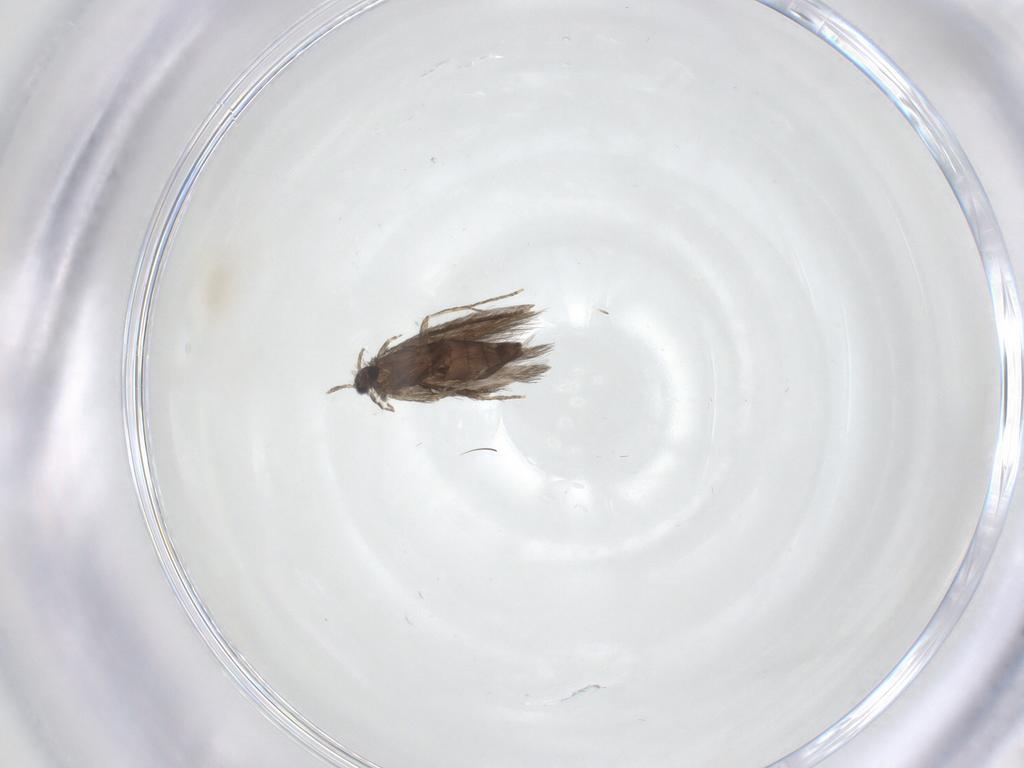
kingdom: Animalia
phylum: Arthropoda
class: Insecta
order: Trichoptera
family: Hydroptilidae
